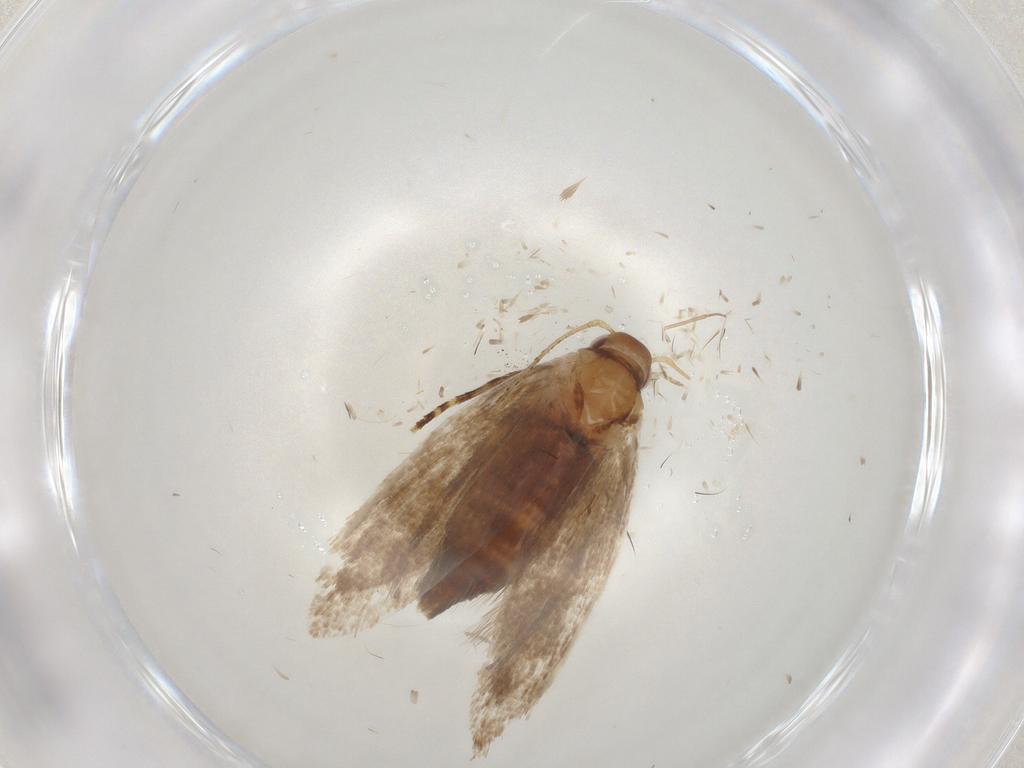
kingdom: Animalia
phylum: Arthropoda
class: Insecta
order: Lepidoptera
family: Oecophoridae
